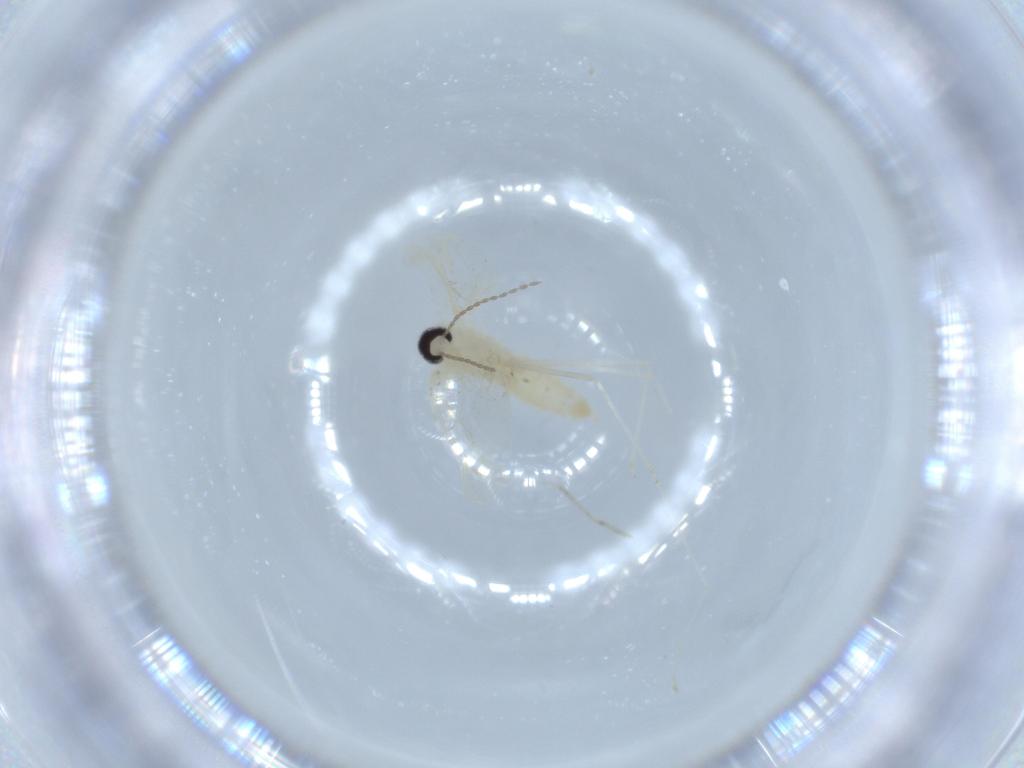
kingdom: Animalia
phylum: Arthropoda
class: Insecta
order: Diptera
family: Cecidomyiidae
